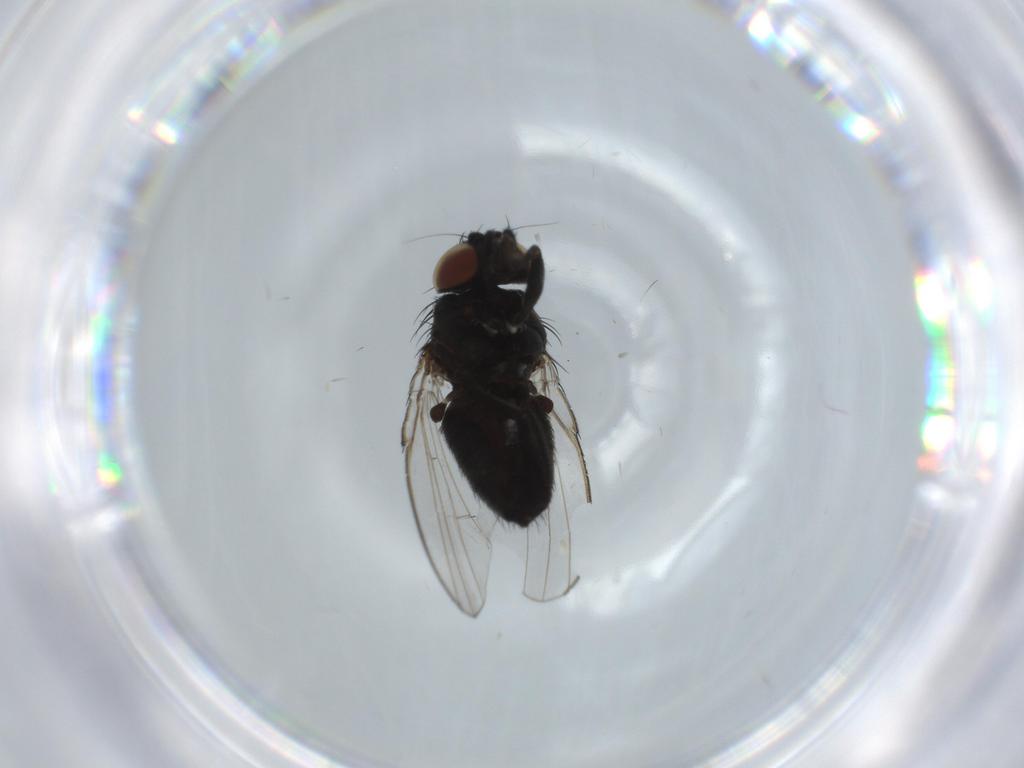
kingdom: Animalia
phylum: Arthropoda
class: Insecta
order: Diptera
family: Milichiidae
